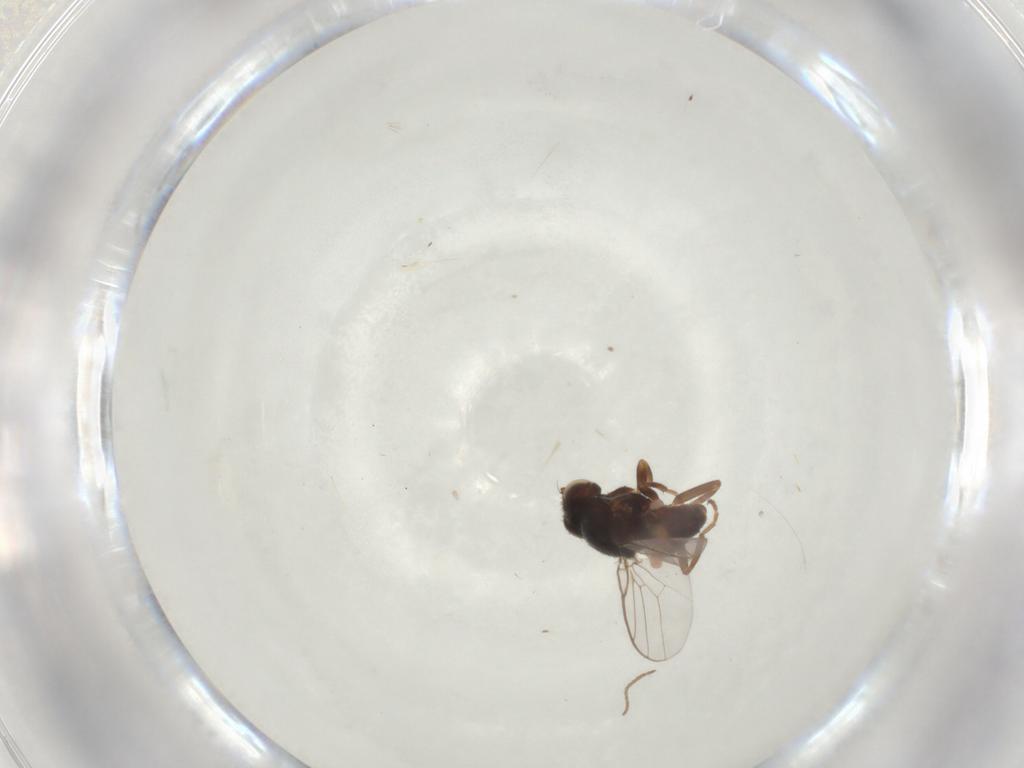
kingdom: Animalia
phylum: Arthropoda
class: Insecta
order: Diptera
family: Chloropidae
